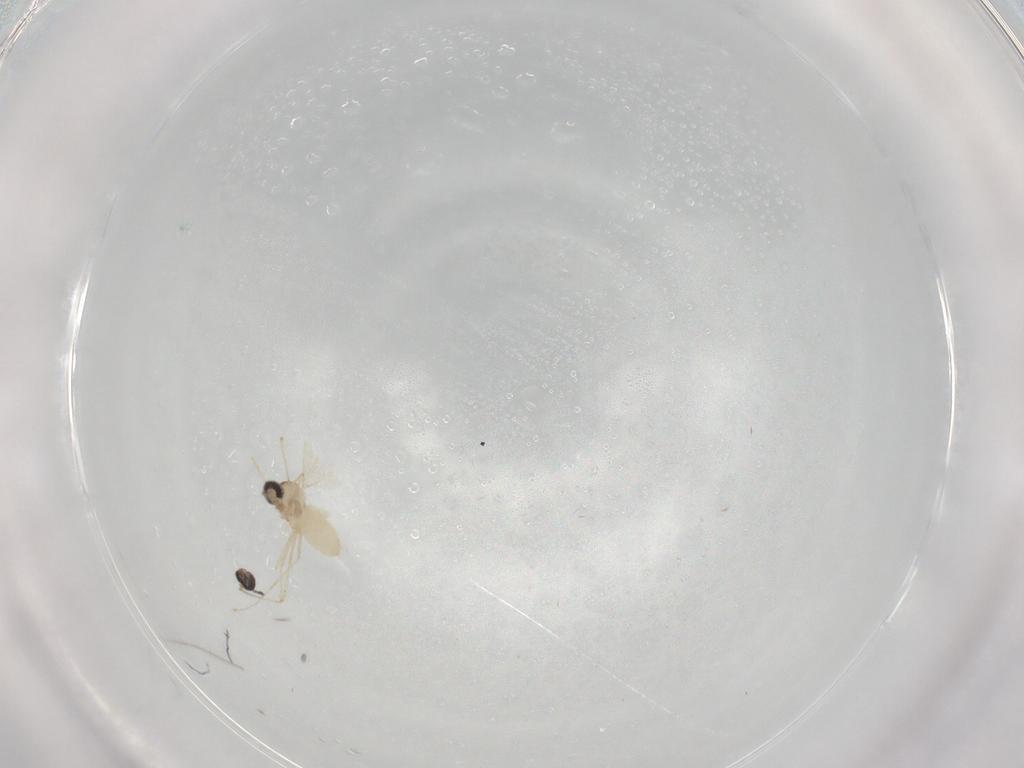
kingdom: Animalia
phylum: Arthropoda
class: Insecta
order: Diptera
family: Cecidomyiidae
